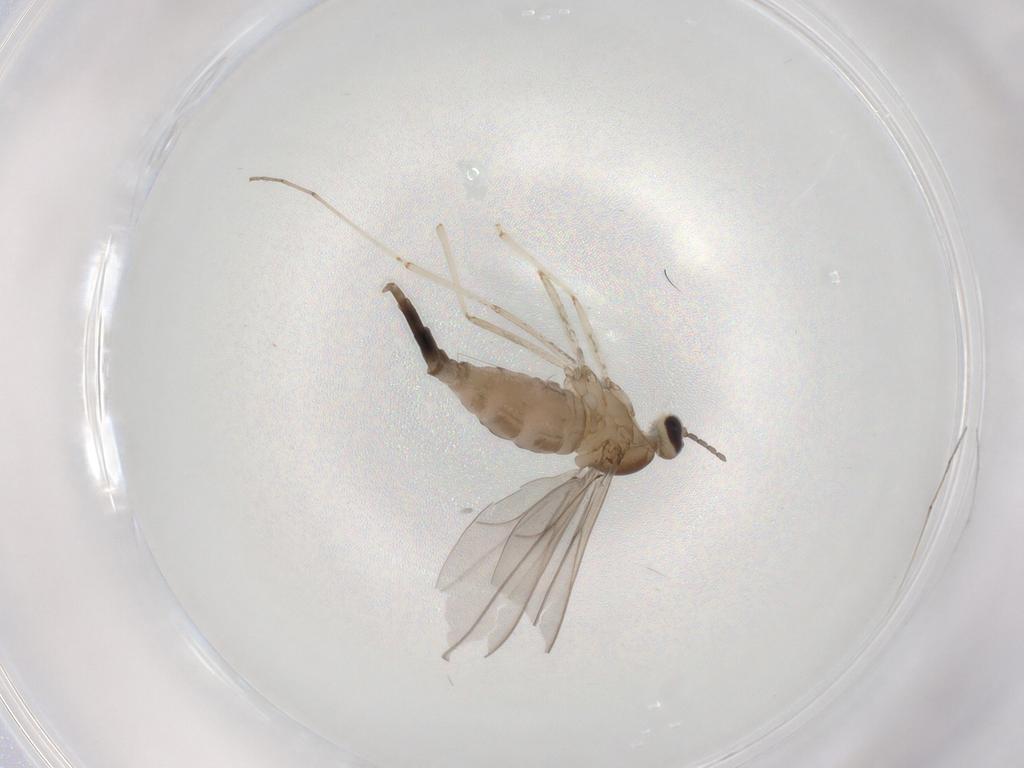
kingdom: Animalia
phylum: Arthropoda
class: Insecta
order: Diptera
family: Cecidomyiidae
